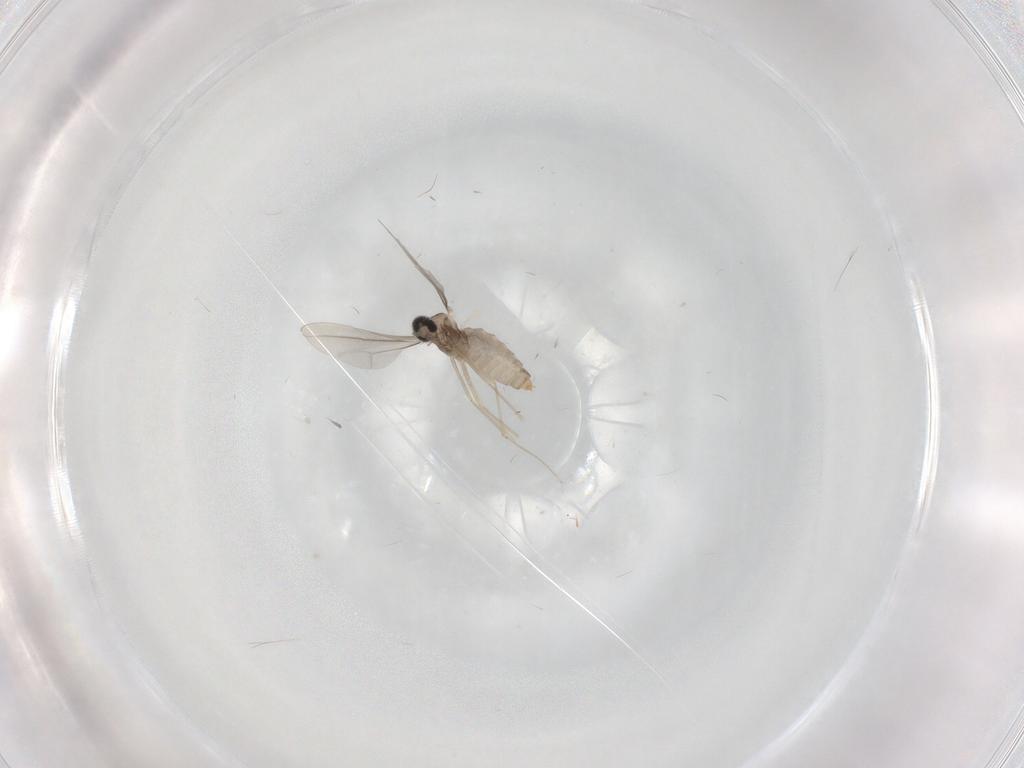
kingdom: Animalia
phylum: Arthropoda
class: Insecta
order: Diptera
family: Cecidomyiidae
